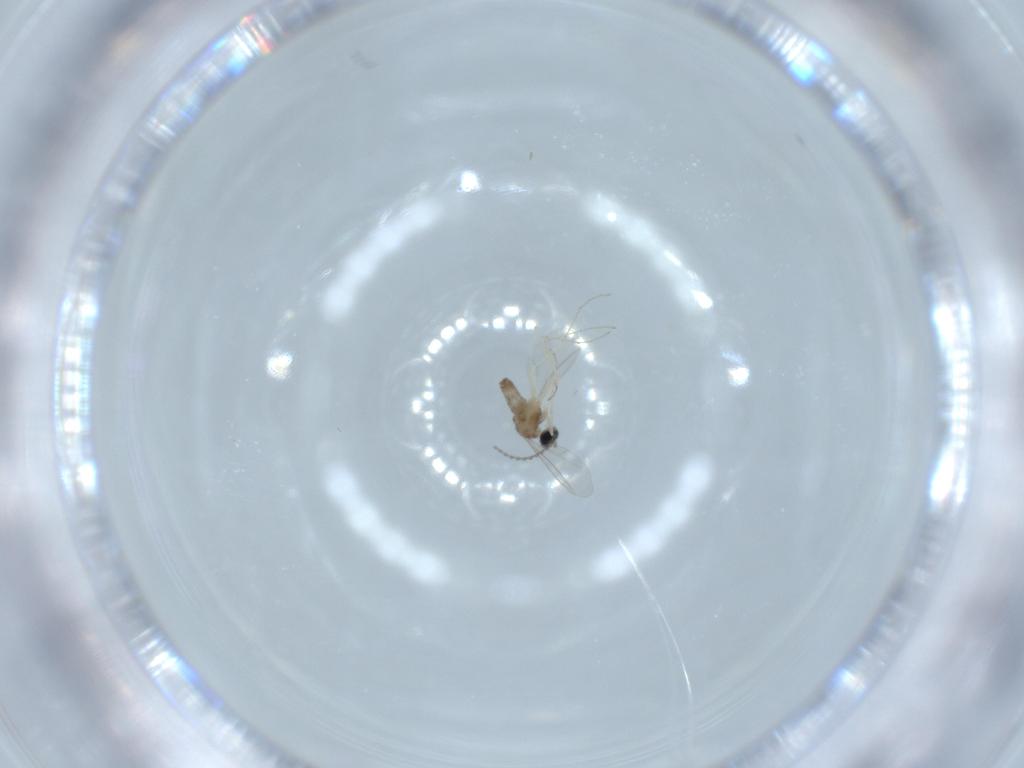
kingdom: Animalia
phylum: Arthropoda
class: Insecta
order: Diptera
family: Cecidomyiidae
